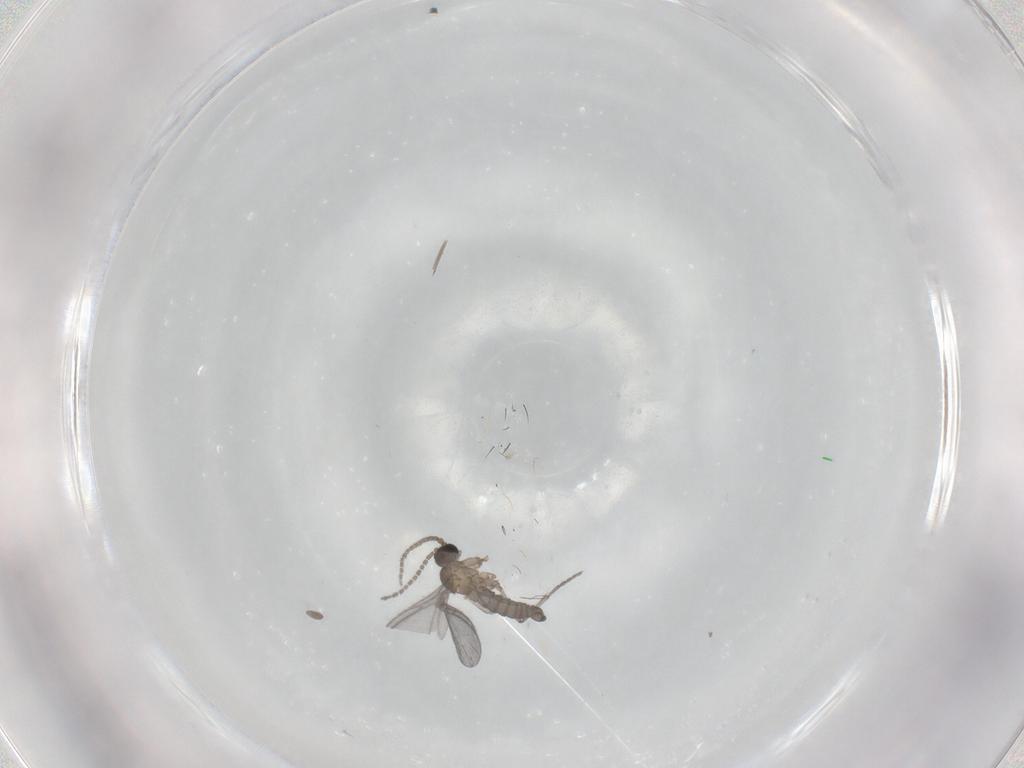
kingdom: Animalia
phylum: Arthropoda
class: Insecta
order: Diptera
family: Sciaridae
